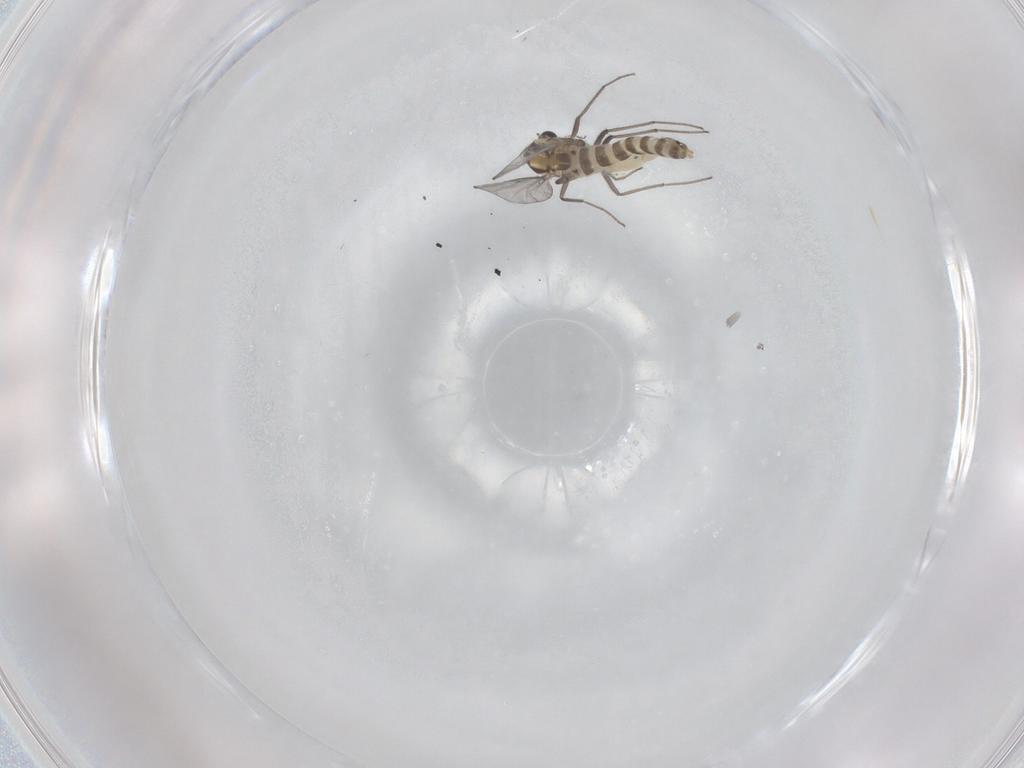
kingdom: Animalia
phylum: Arthropoda
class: Insecta
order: Diptera
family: Chironomidae
